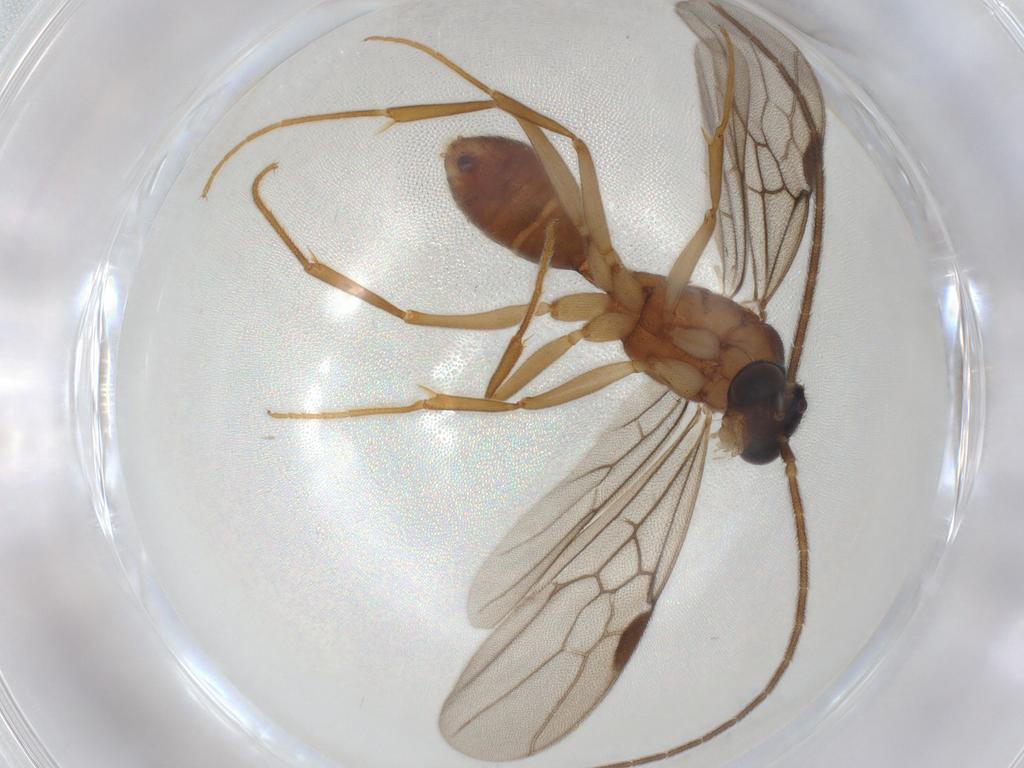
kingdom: Animalia
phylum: Arthropoda
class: Insecta
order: Hymenoptera
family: Formicidae
